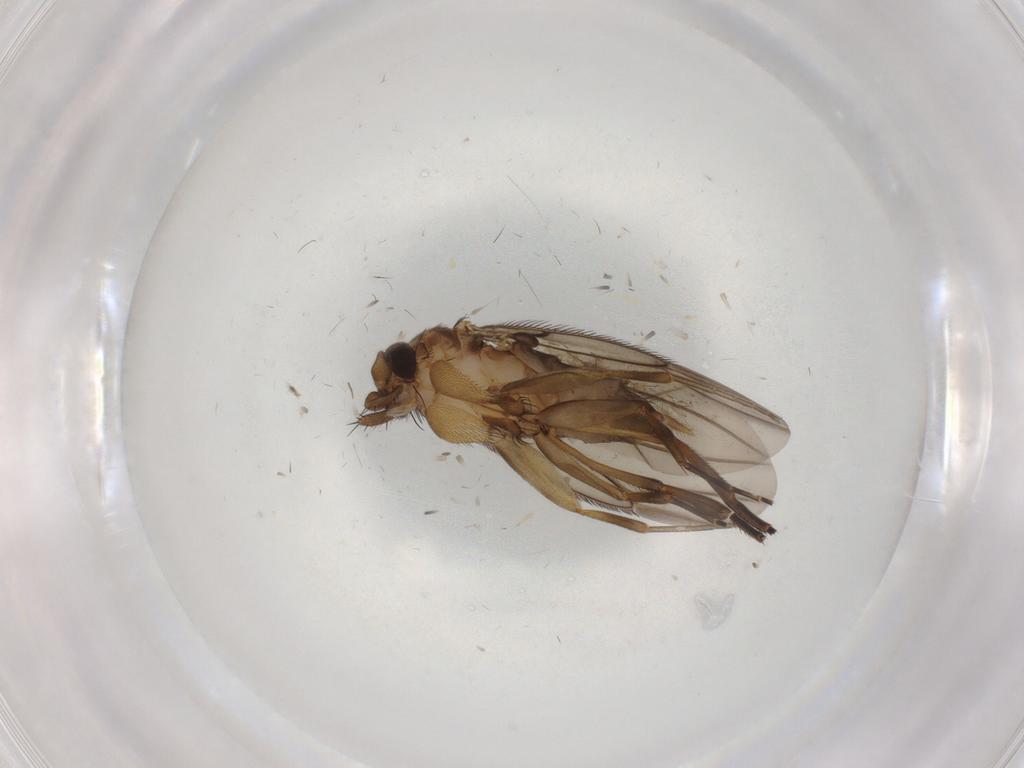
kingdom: Animalia
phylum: Arthropoda
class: Insecta
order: Diptera
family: Phoridae
